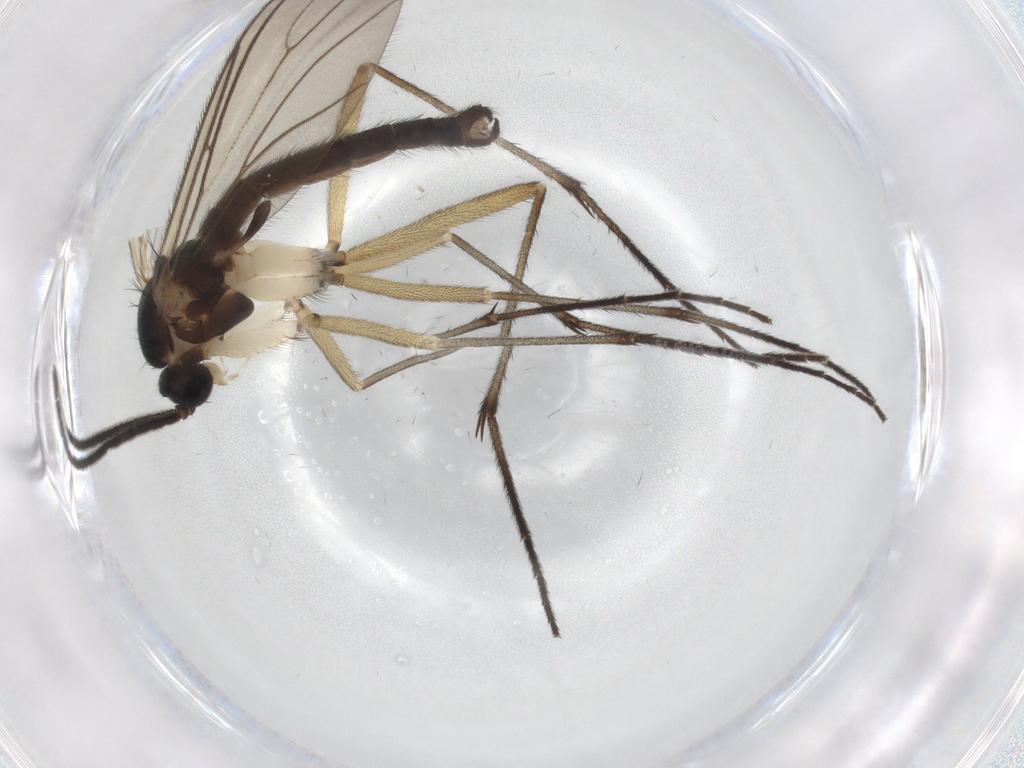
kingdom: Animalia
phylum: Arthropoda
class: Insecta
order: Diptera
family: Sciaridae
